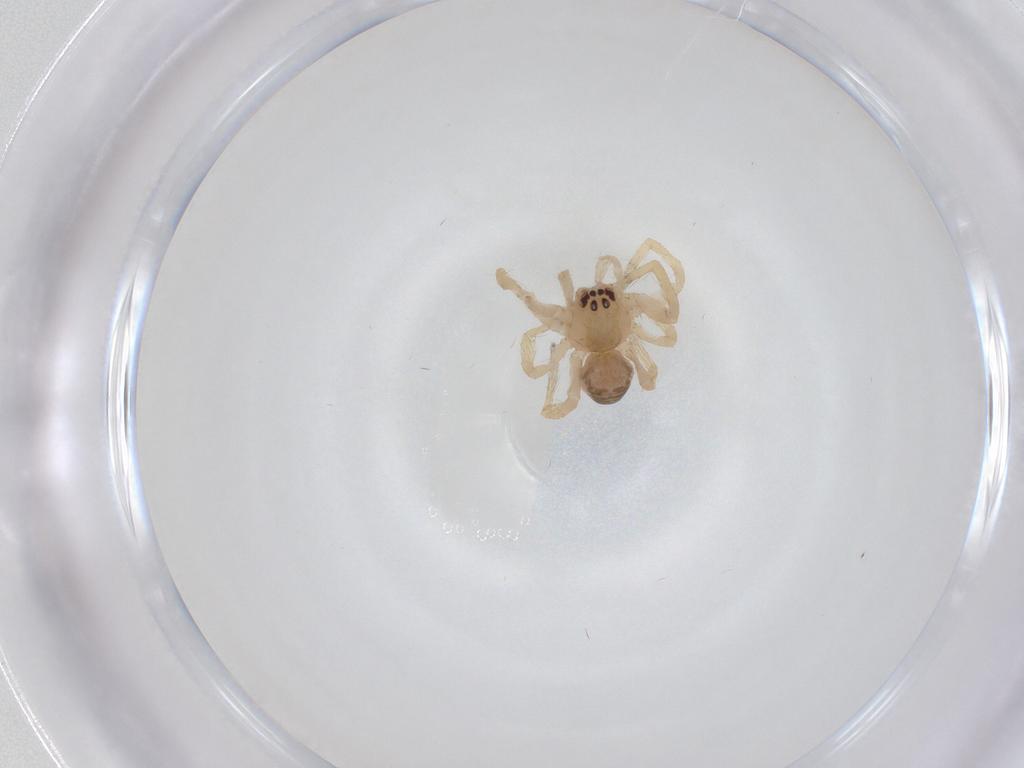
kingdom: Animalia
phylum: Arthropoda
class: Arachnida
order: Araneae
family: Desidae
